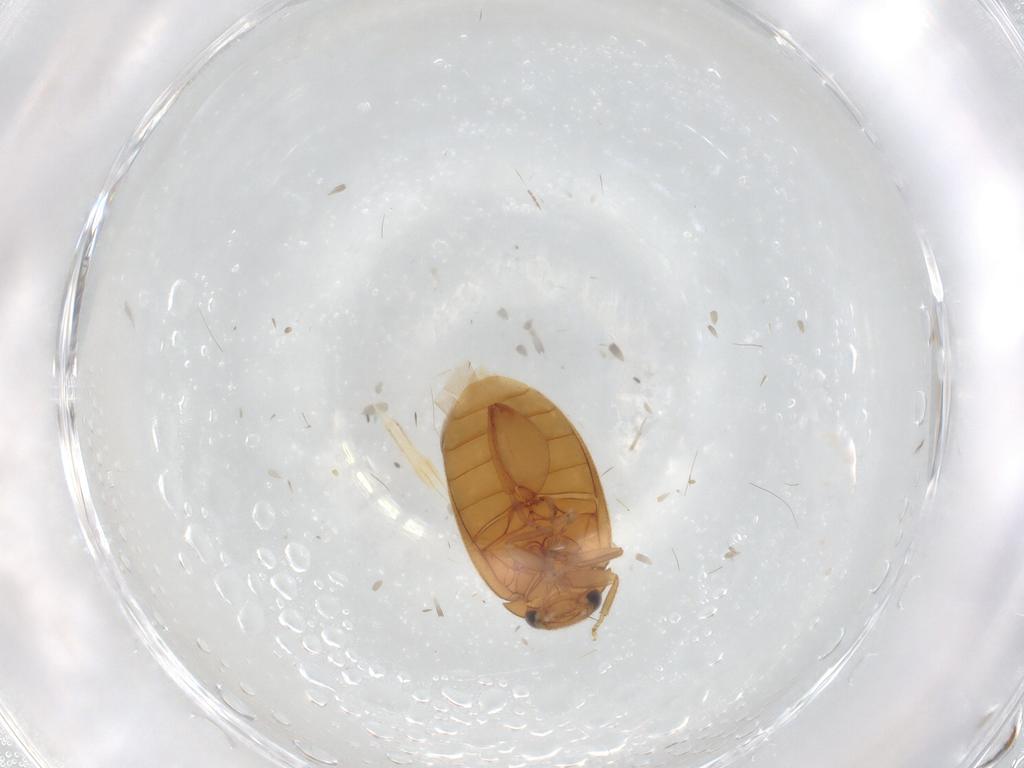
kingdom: Animalia
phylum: Arthropoda
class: Insecta
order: Coleoptera
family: Scirtidae
